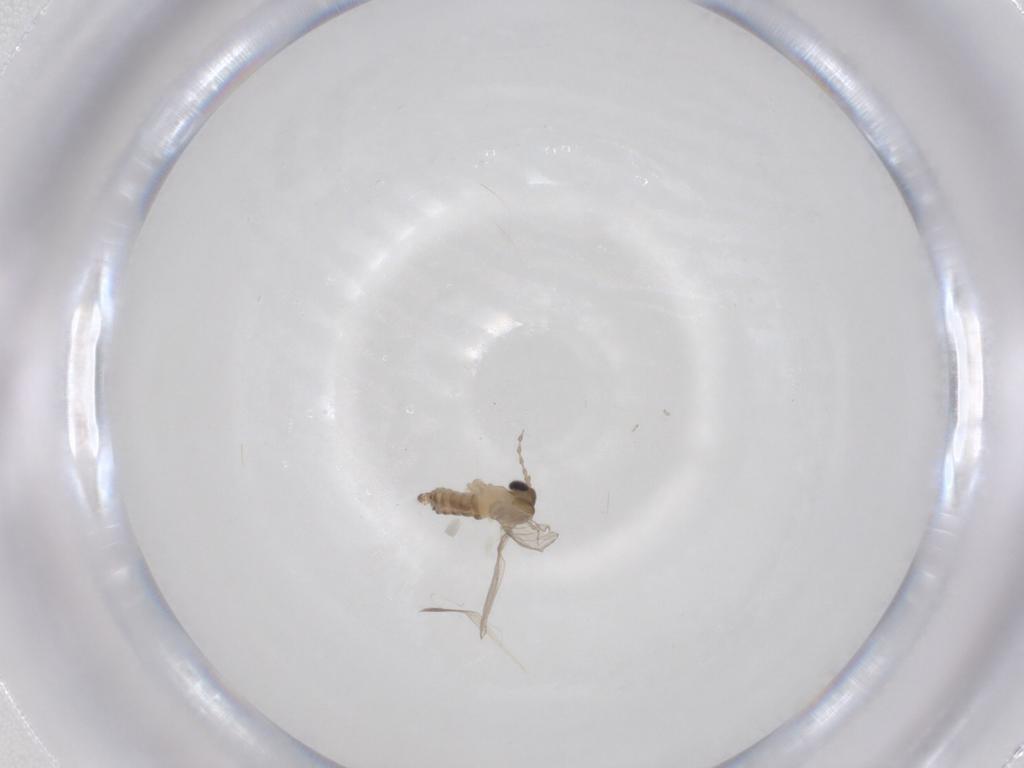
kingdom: Animalia
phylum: Arthropoda
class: Insecta
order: Diptera
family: Psychodidae
